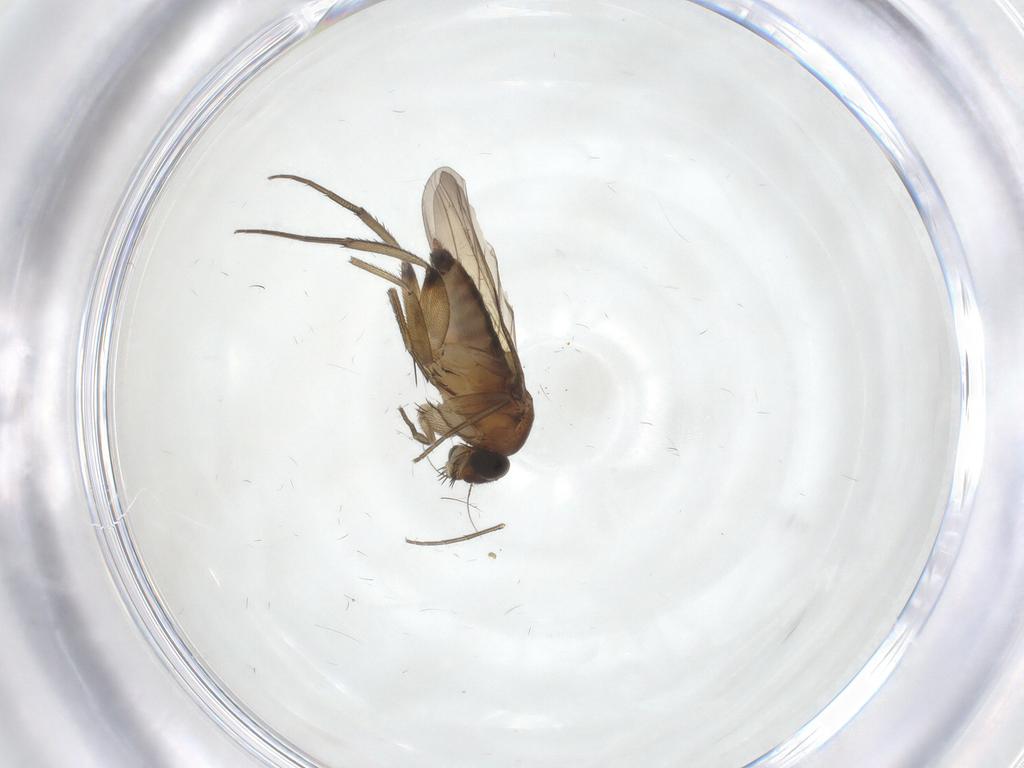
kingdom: Animalia
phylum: Arthropoda
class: Insecta
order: Diptera
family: Phoridae
